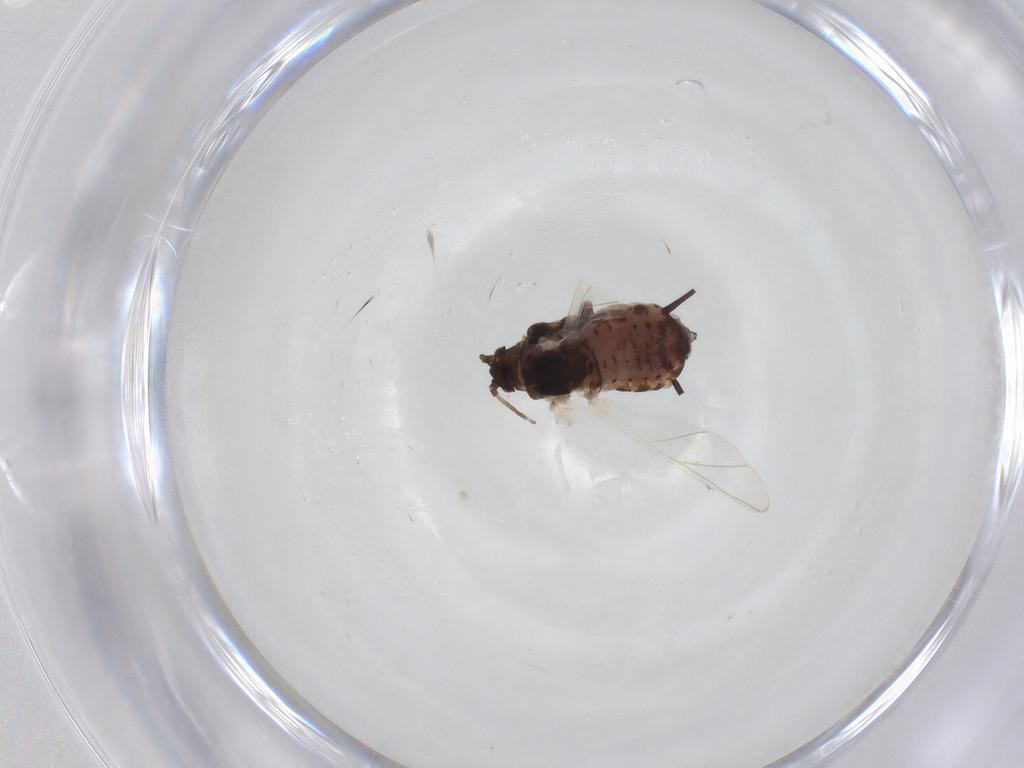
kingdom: Animalia
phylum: Arthropoda
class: Insecta
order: Hemiptera
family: Aphididae
